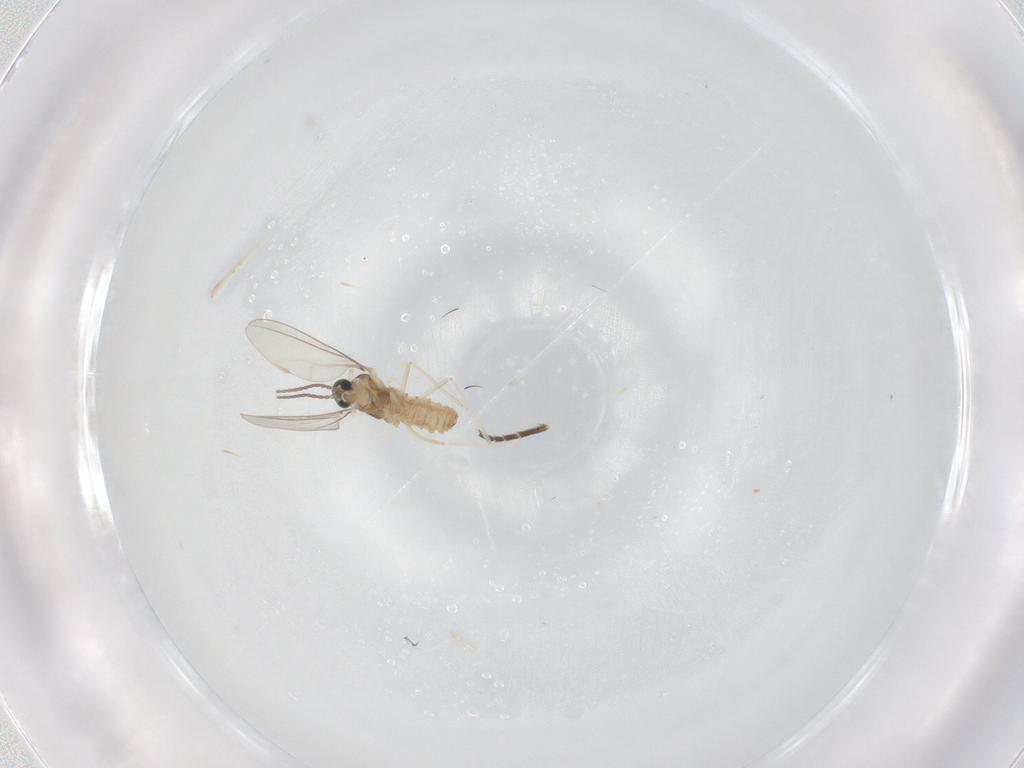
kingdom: Animalia
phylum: Arthropoda
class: Insecta
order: Diptera
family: Cecidomyiidae
